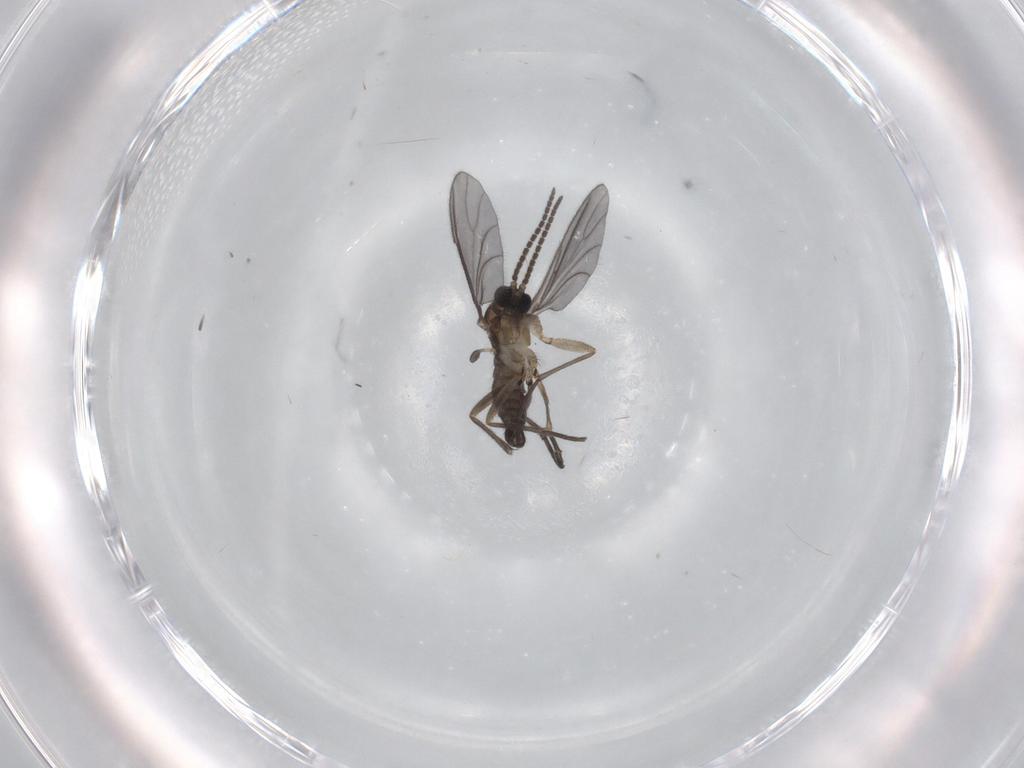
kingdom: Animalia
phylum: Arthropoda
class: Insecta
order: Diptera
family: Sciaridae
